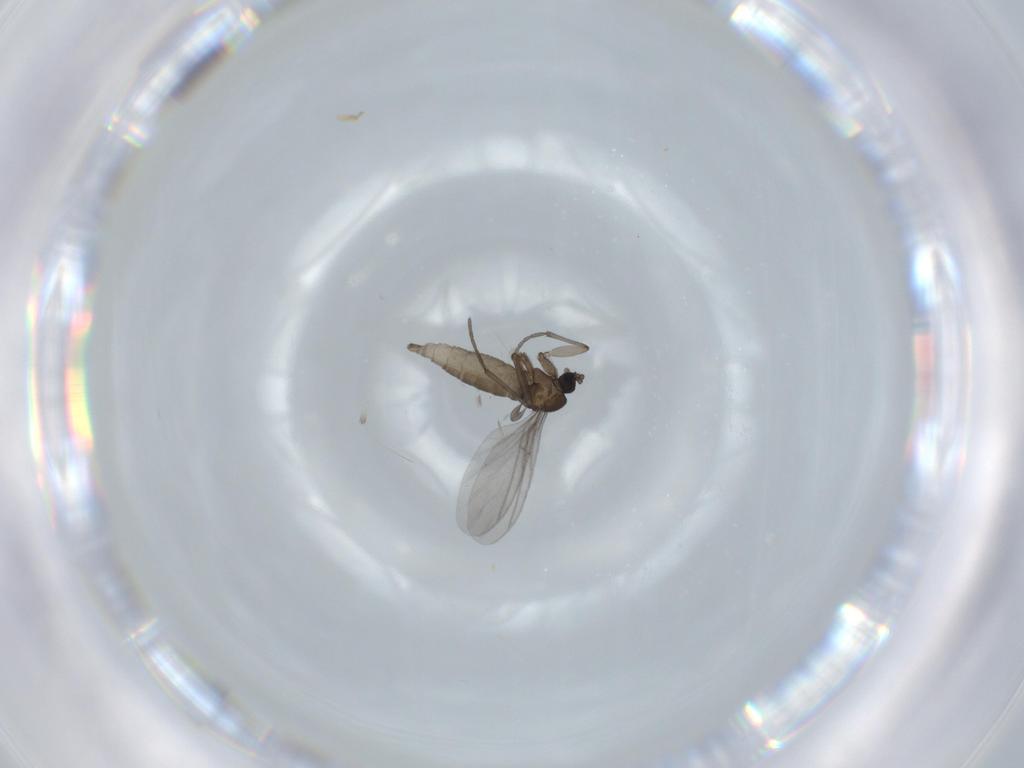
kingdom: Animalia
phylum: Arthropoda
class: Insecta
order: Diptera
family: Sciaridae
